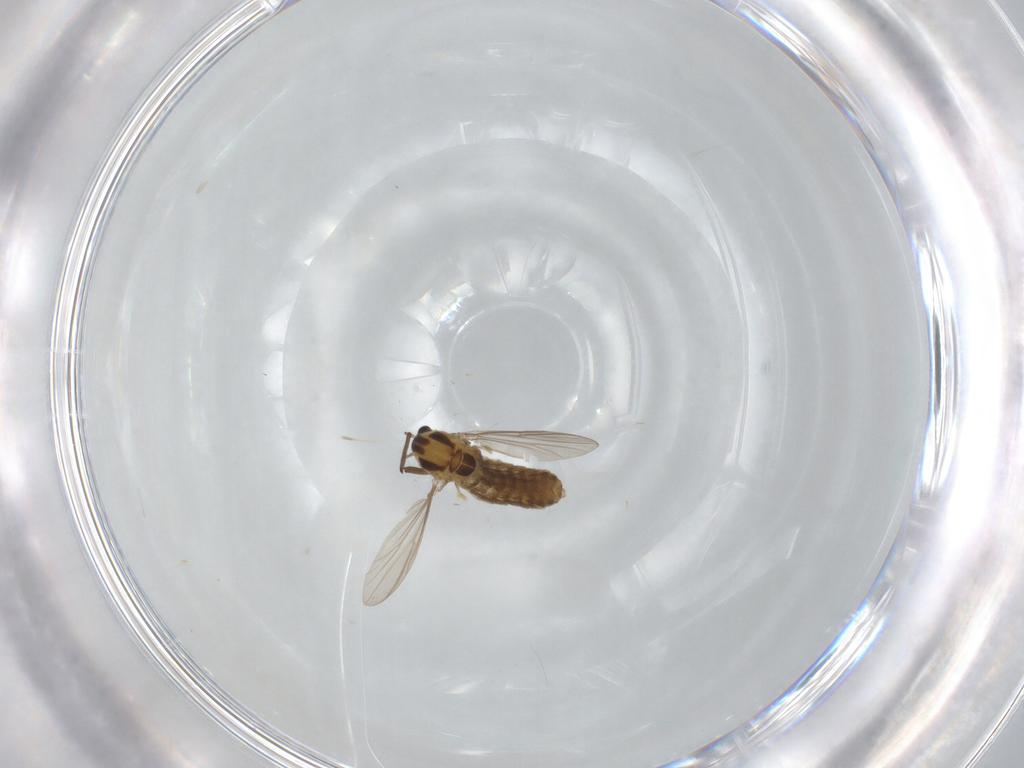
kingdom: Animalia
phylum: Arthropoda
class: Insecta
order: Diptera
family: Chironomidae
